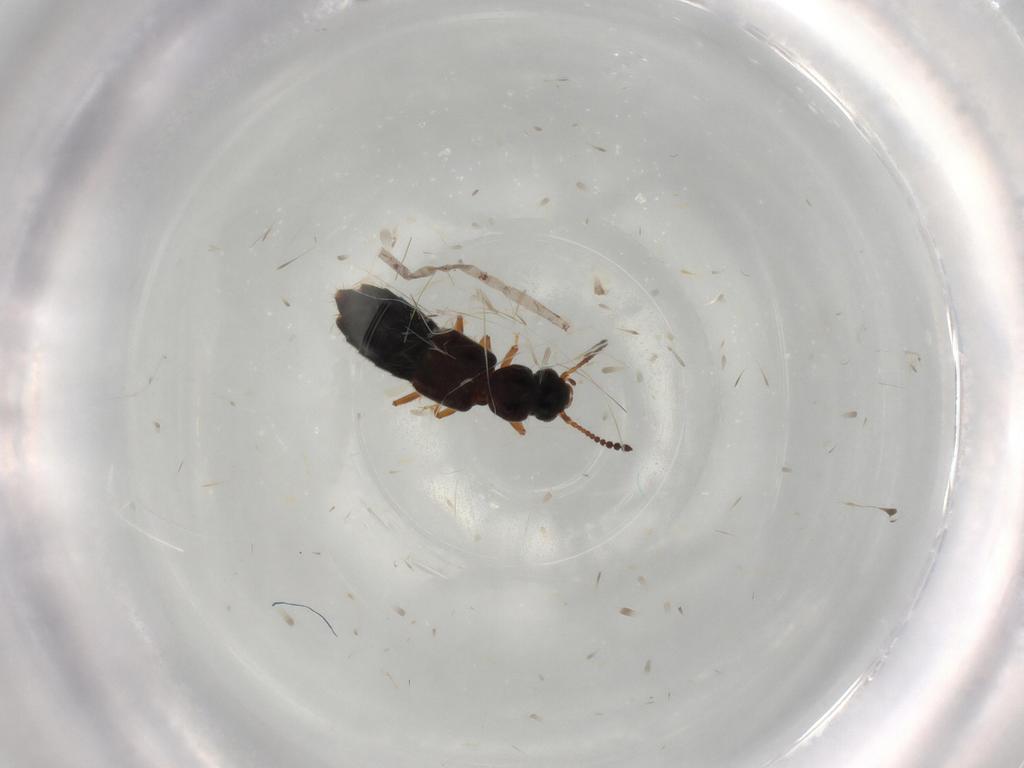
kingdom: Animalia
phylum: Arthropoda
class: Insecta
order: Coleoptera
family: Staphylinidae
